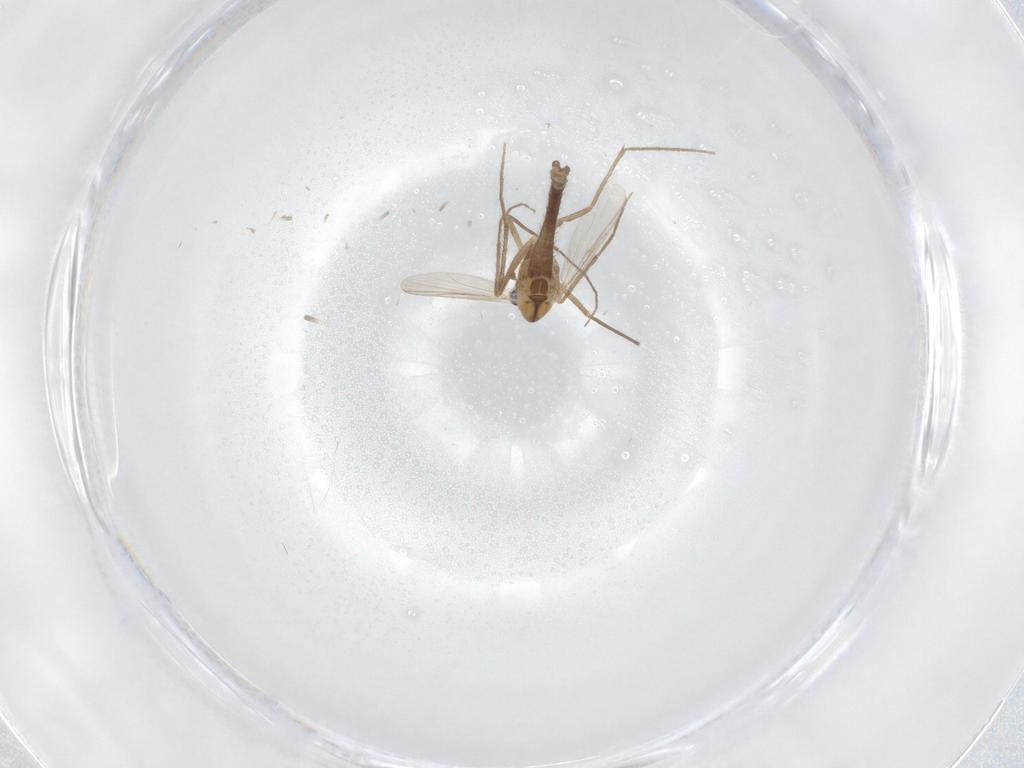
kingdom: Animalia
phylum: Arthropoda
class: Insecta
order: Diptera
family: Chironomidae
